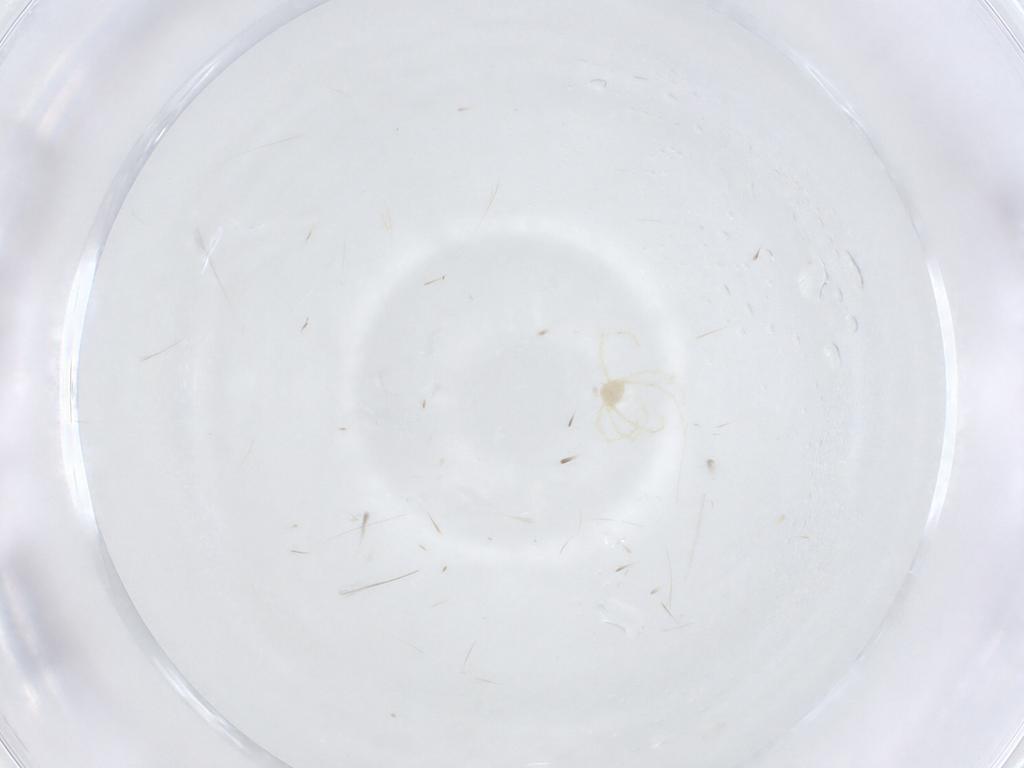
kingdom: Animalia
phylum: Arthropoda
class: Arachnida
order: Trombidiformes
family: Erythraeidae
